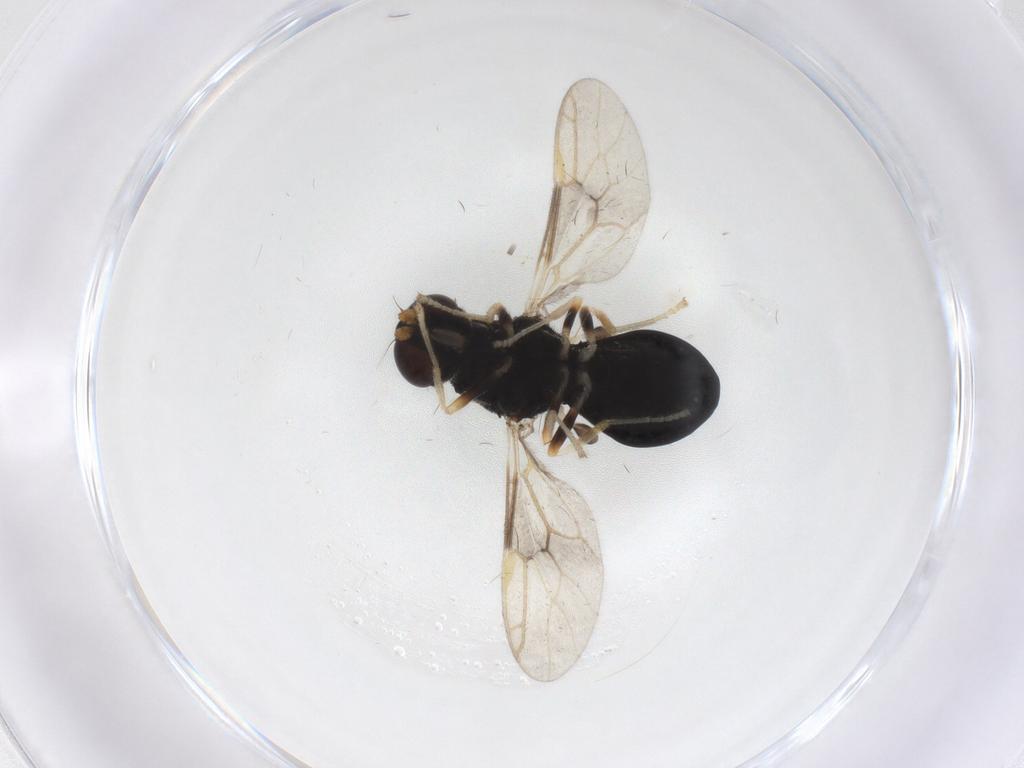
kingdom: Animalia
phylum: Arthropoda
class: Insecta
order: Diptera
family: Stratiomyidae
